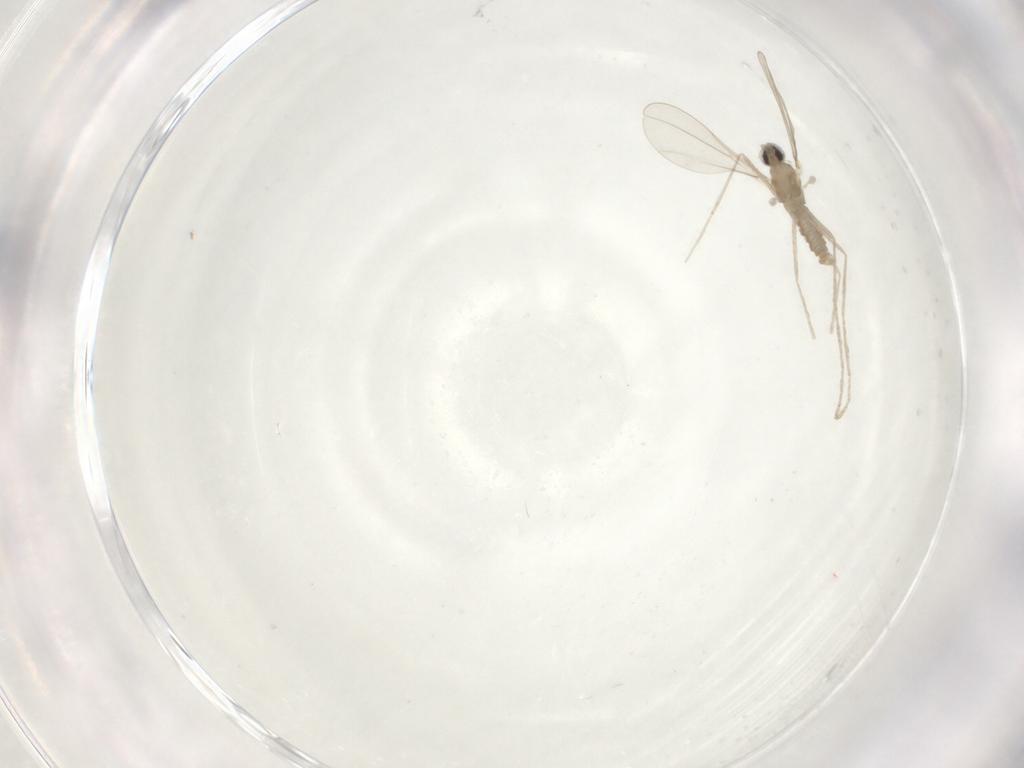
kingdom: Animalia
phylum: Arthropoda
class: Insecta
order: Diptera
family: Cecidomyiidae
